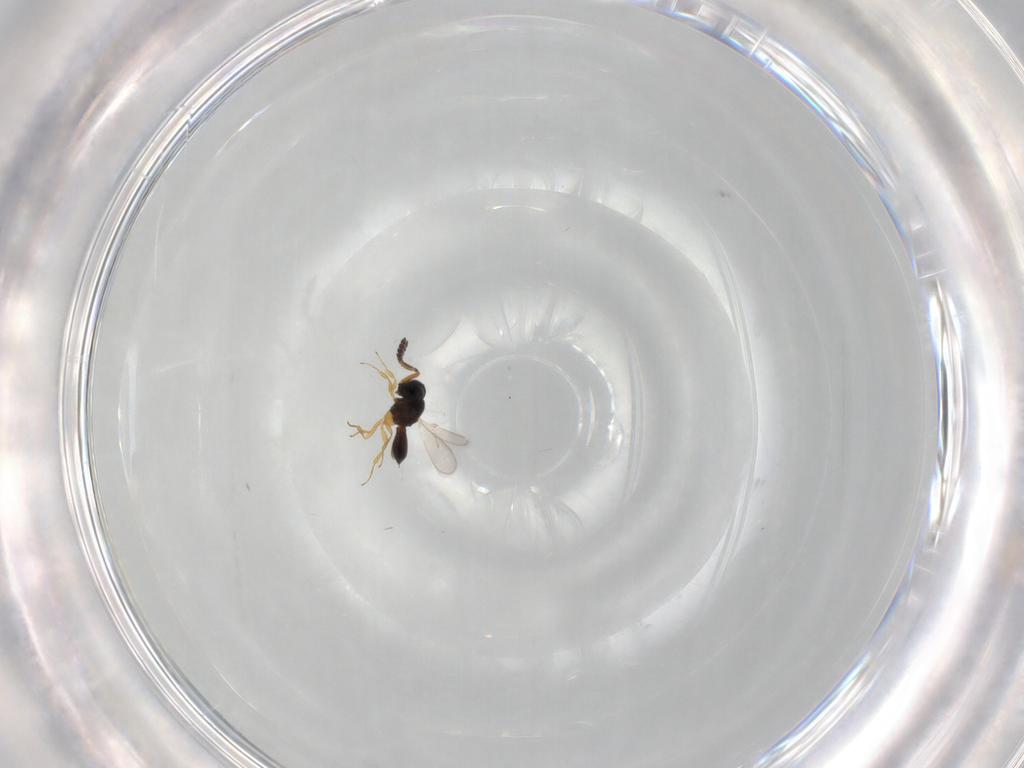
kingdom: Animalia
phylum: Arthropoda
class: Insecta
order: Hymenoptera
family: Scelionidae
